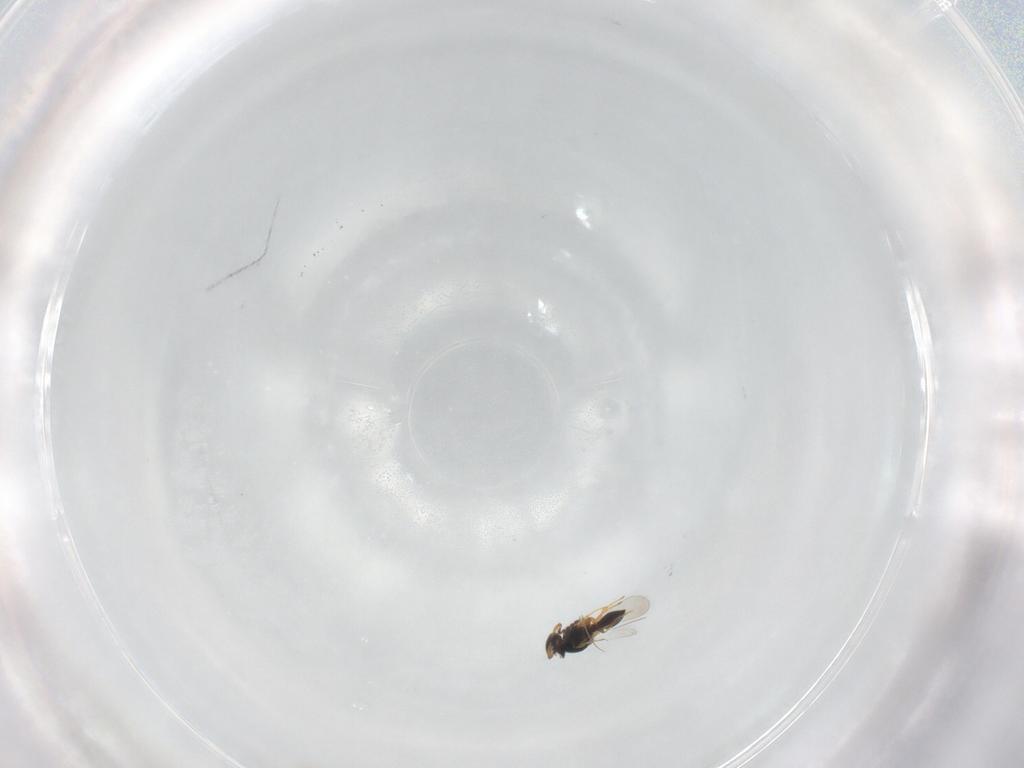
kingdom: Animalia
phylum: Arthropoda
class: Insecta
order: Hymenoptera
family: Platygastridae
